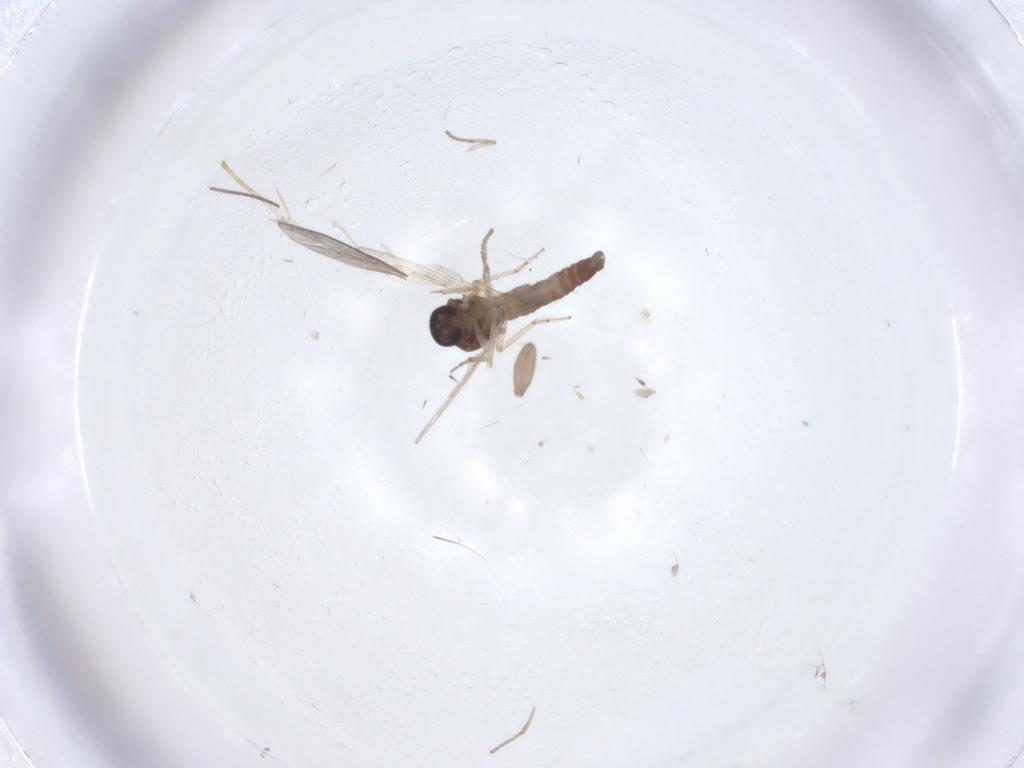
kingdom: Animalia
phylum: Arthropoda
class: Insecta
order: Diptera
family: Ceratopogonidae
